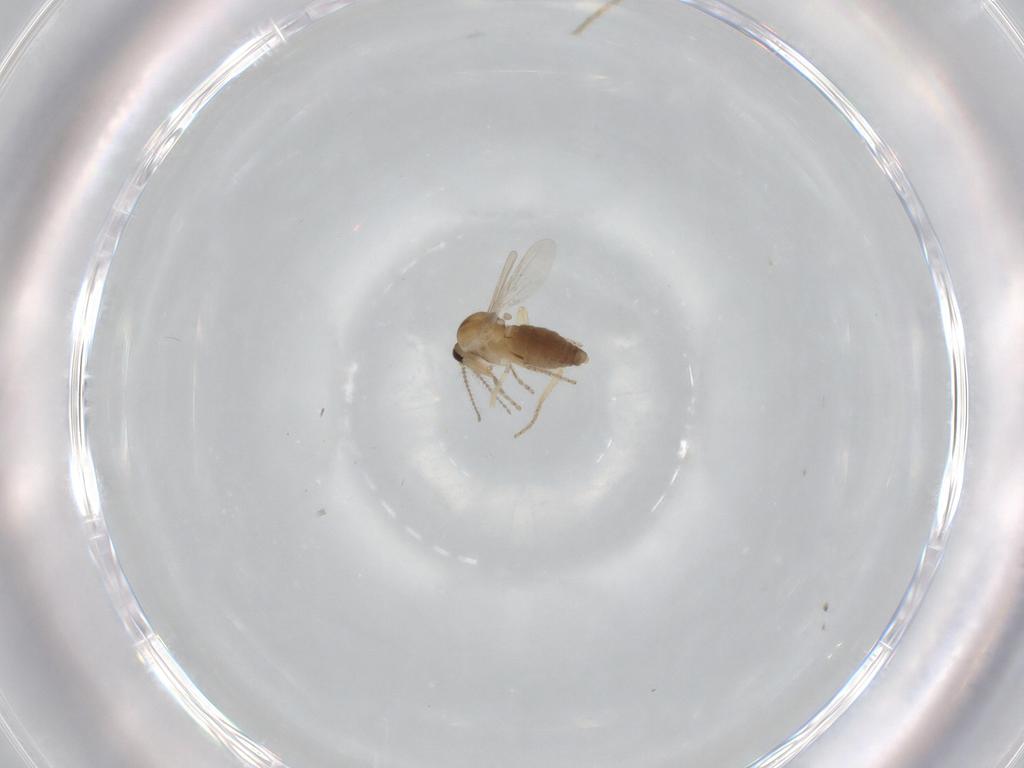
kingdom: Animalia
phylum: Arthropoda
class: Insecta
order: Diptera
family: Ceratopogonidae
